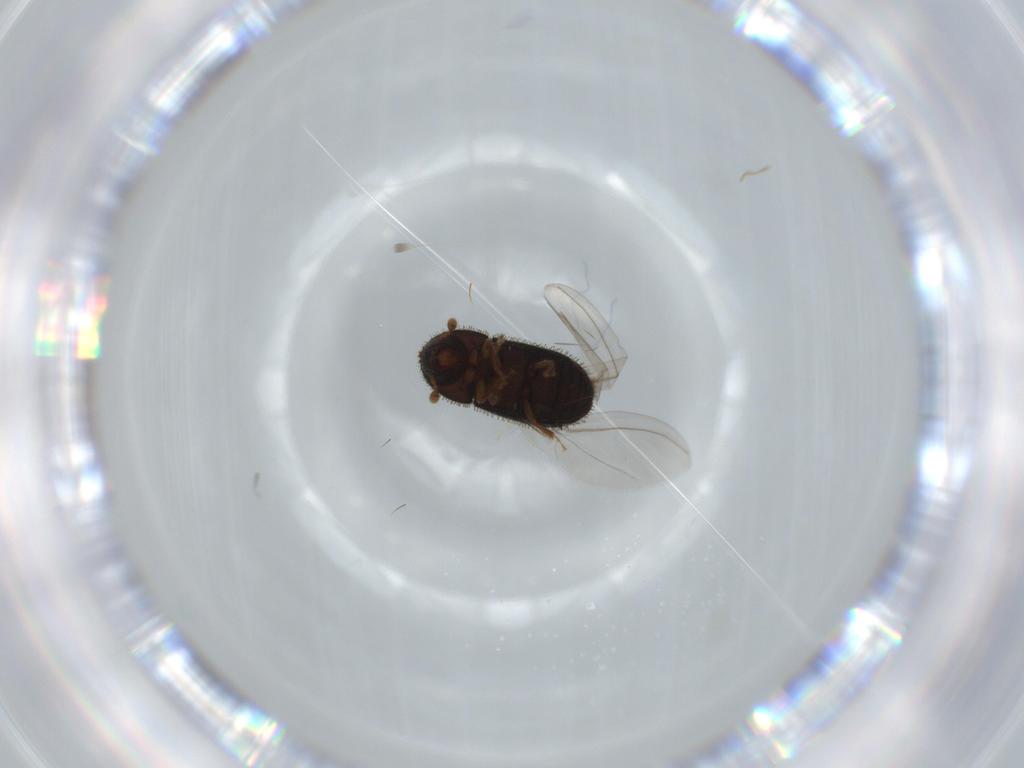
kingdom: Animalia
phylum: Arthropoda
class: Insecta
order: Coleoptera
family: Curculionidae
